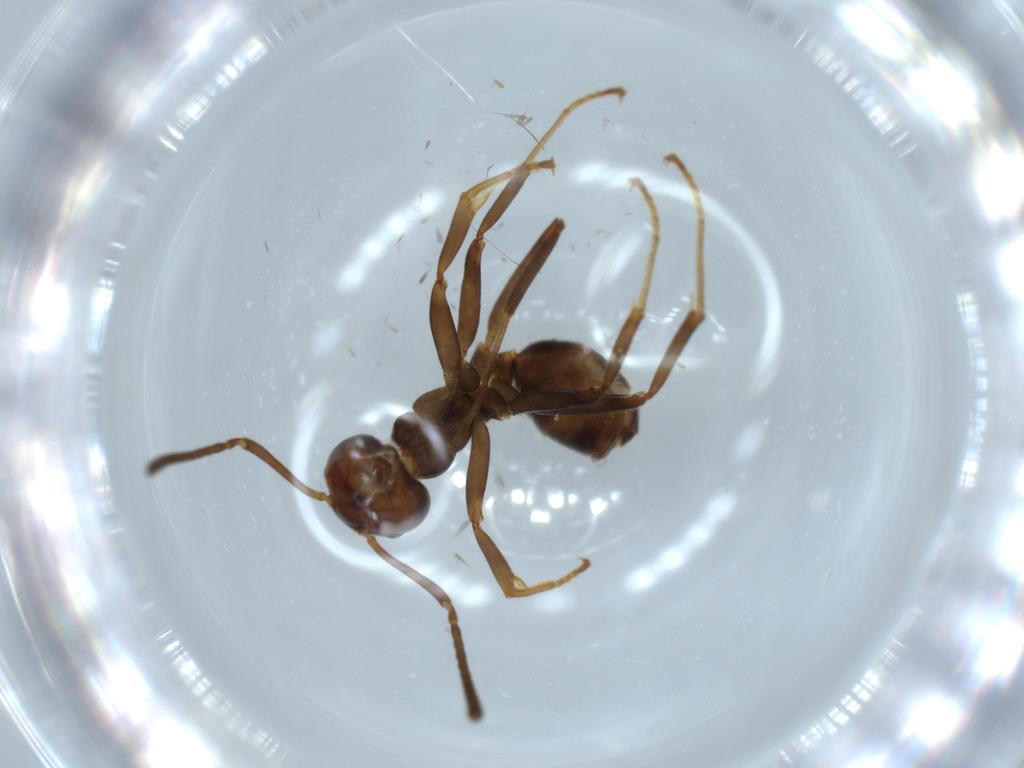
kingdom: Animalia
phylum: Arthropoda
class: Insecta
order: Hymenoptera
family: Formicidae
